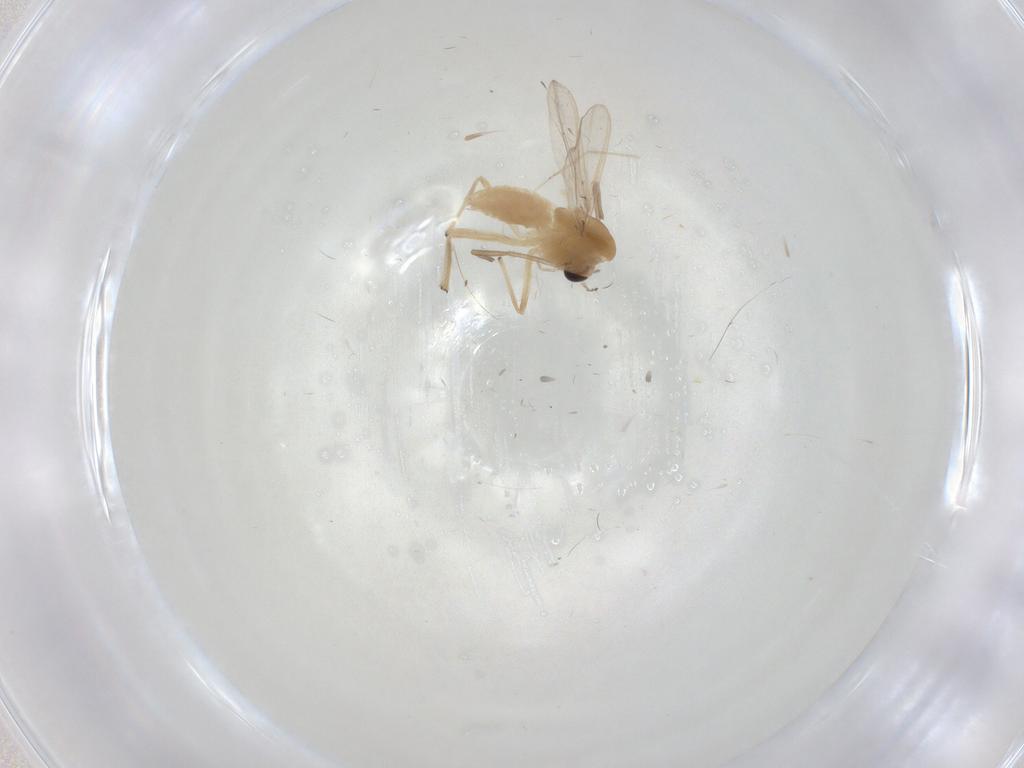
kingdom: Animalia
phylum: Arthropoda
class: Insecta
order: Diptera
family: Chironomidae
